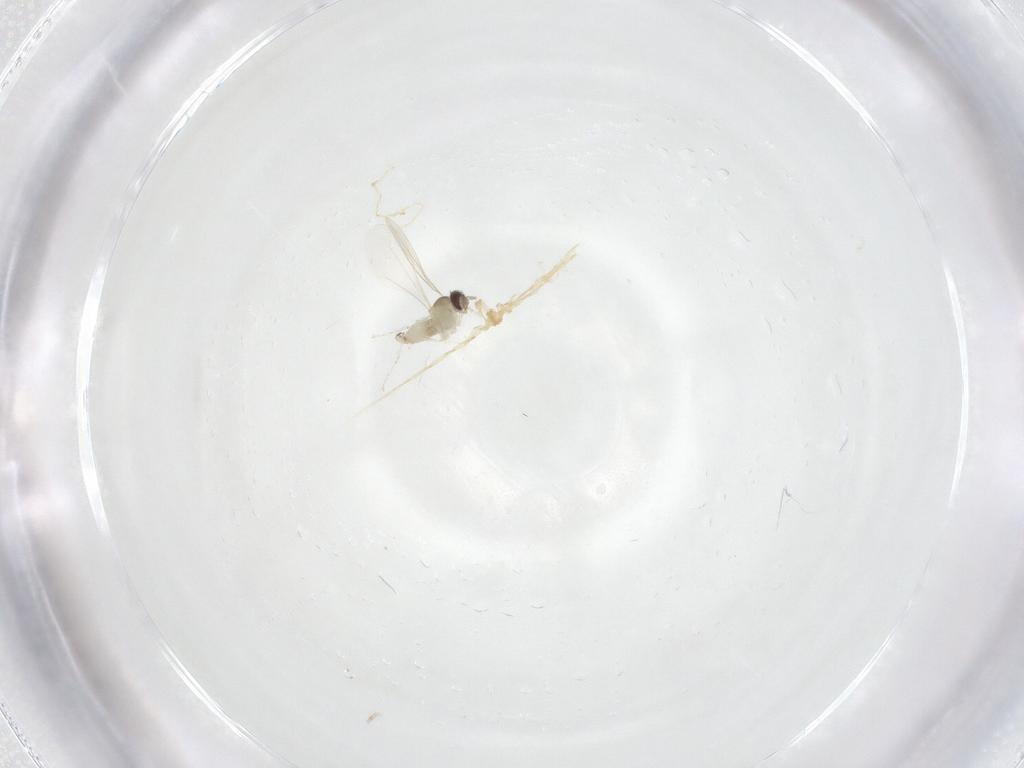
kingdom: Animalia
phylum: Arthropoda
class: Insecta
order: Diptera
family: Cecidomyiidae
